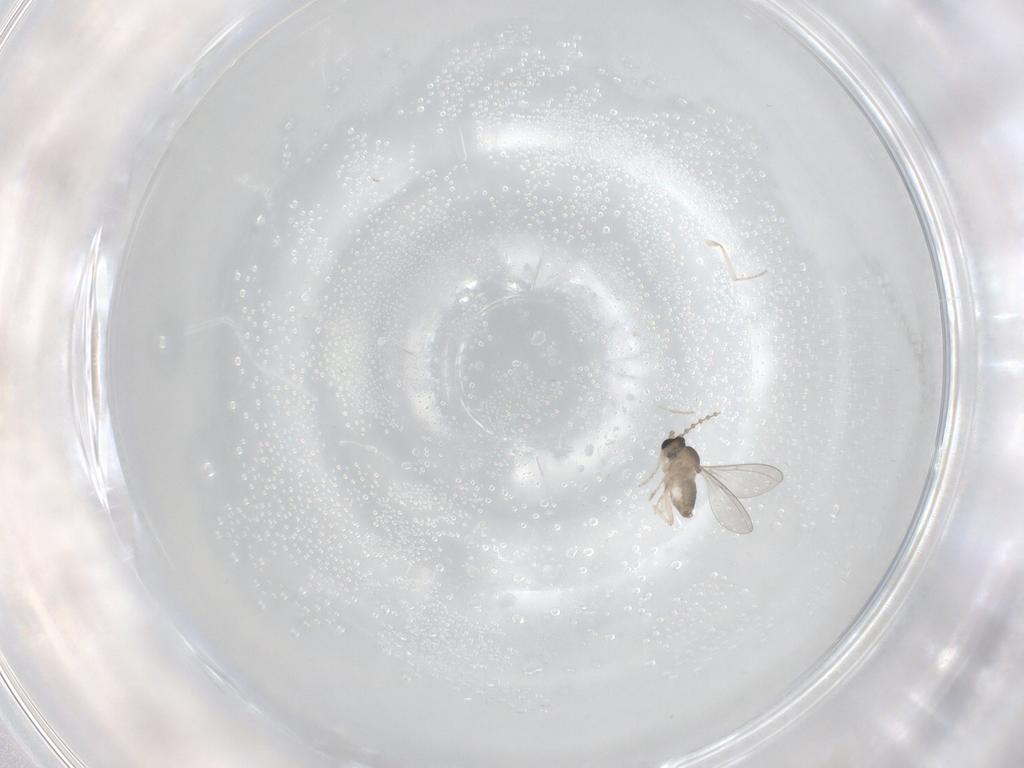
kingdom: Animalia
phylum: Arthropoda
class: Insecta
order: Diptera
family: Cecidomyiidae
